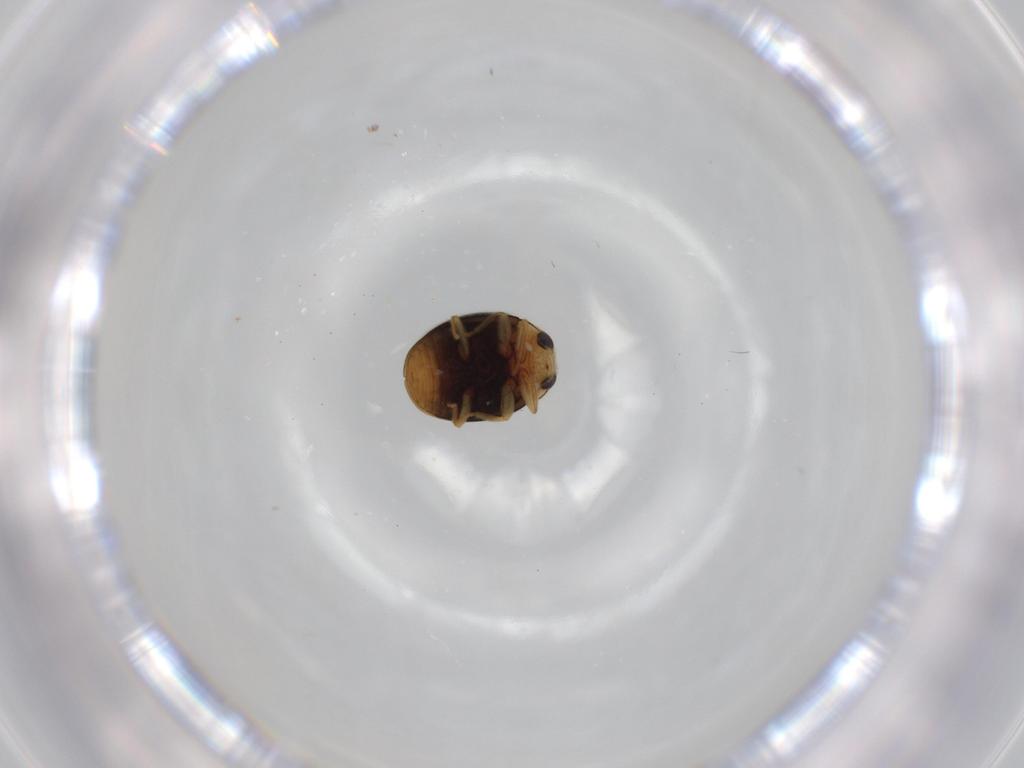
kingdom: Animalia
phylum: Arthropoda
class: Insecta
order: Coleoptera
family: Coccinellidae
